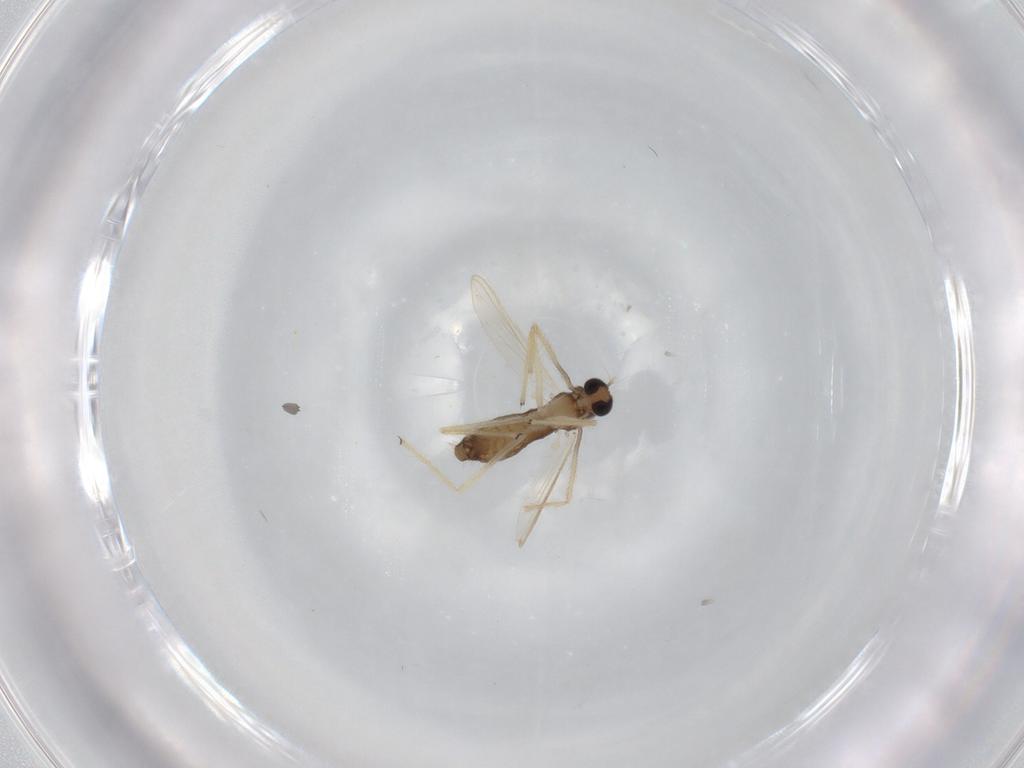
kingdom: Animalia
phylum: Arthropoda
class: Insecta
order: Diptera
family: Chironomidae
